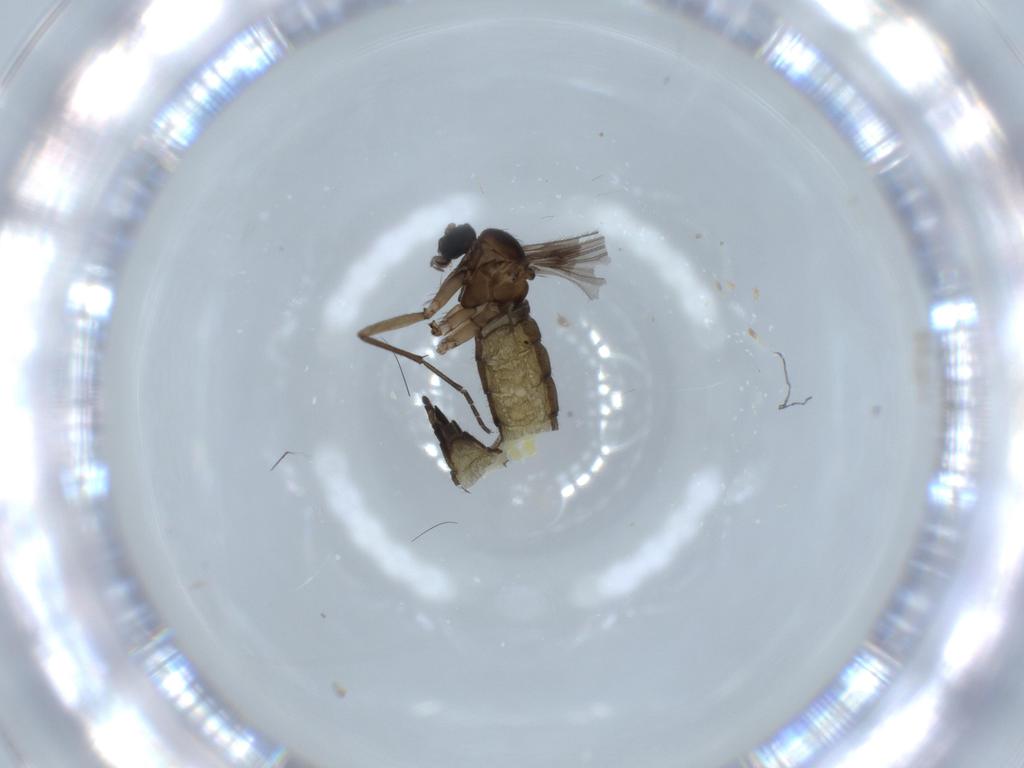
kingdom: Animalia
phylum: Arthropoda
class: Insecta
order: Diptera
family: Sciaridae
